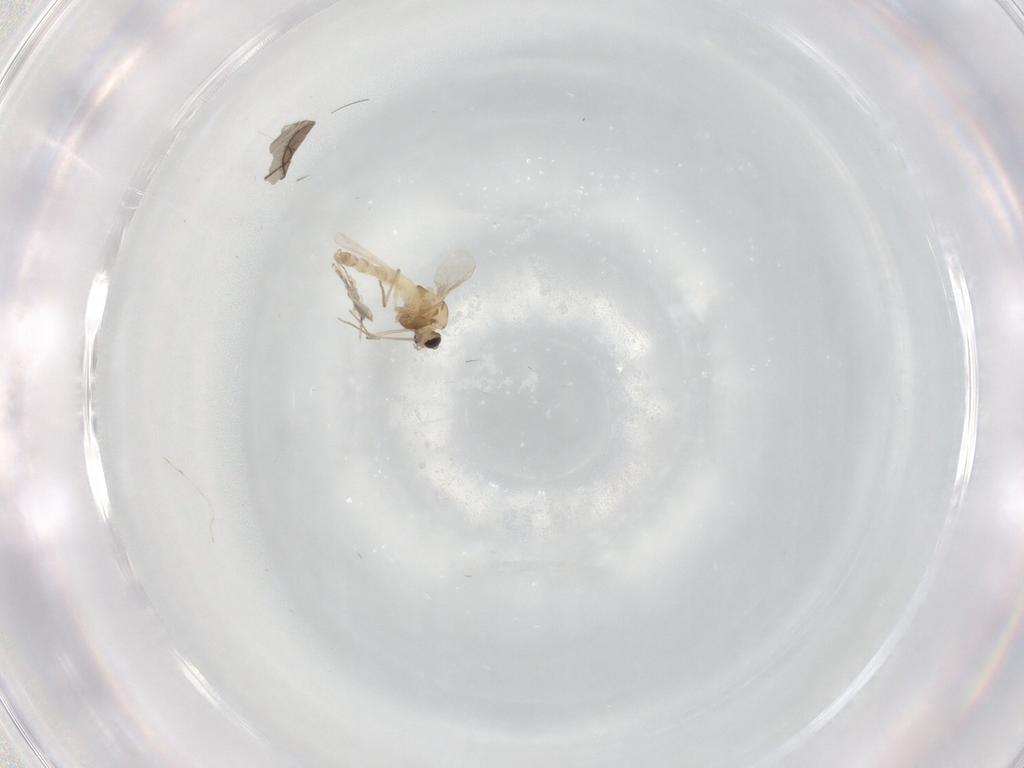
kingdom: Animalia
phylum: Arthropoda
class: Insecta
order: Diptera
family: Chironomidae
